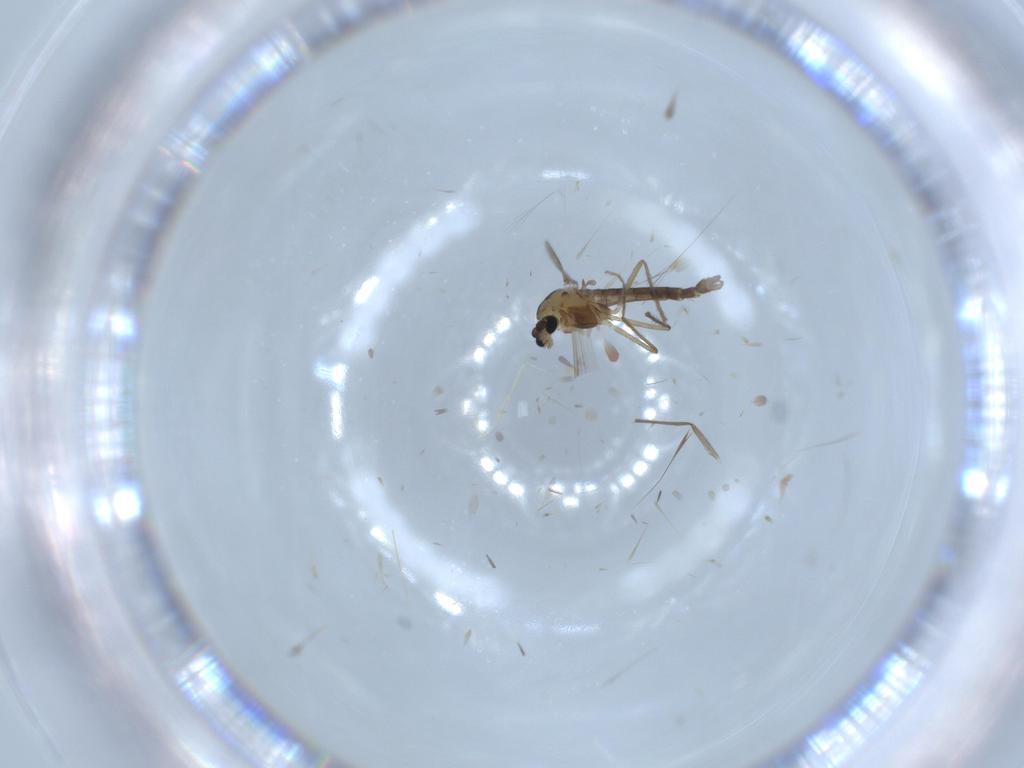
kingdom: Animalia
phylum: Arthropoda
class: Insecta
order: Diptera
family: Chironomidae
